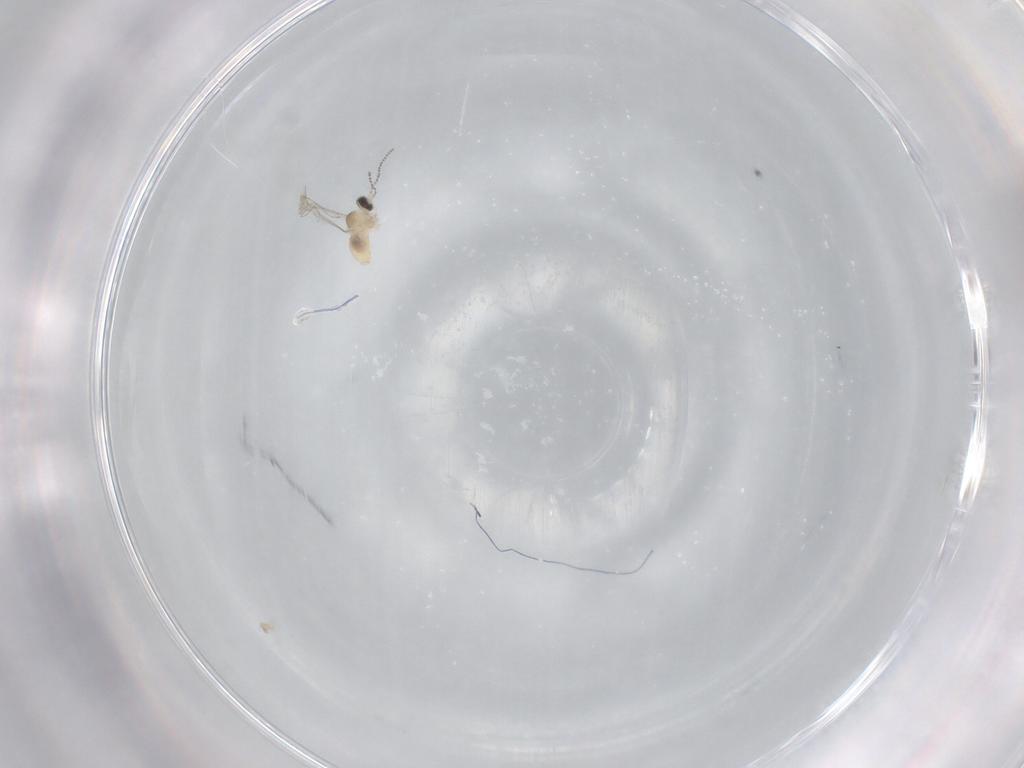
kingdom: Animalia
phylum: Arthropoda
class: Insecta
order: Diptera
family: Cecidomyiidae
